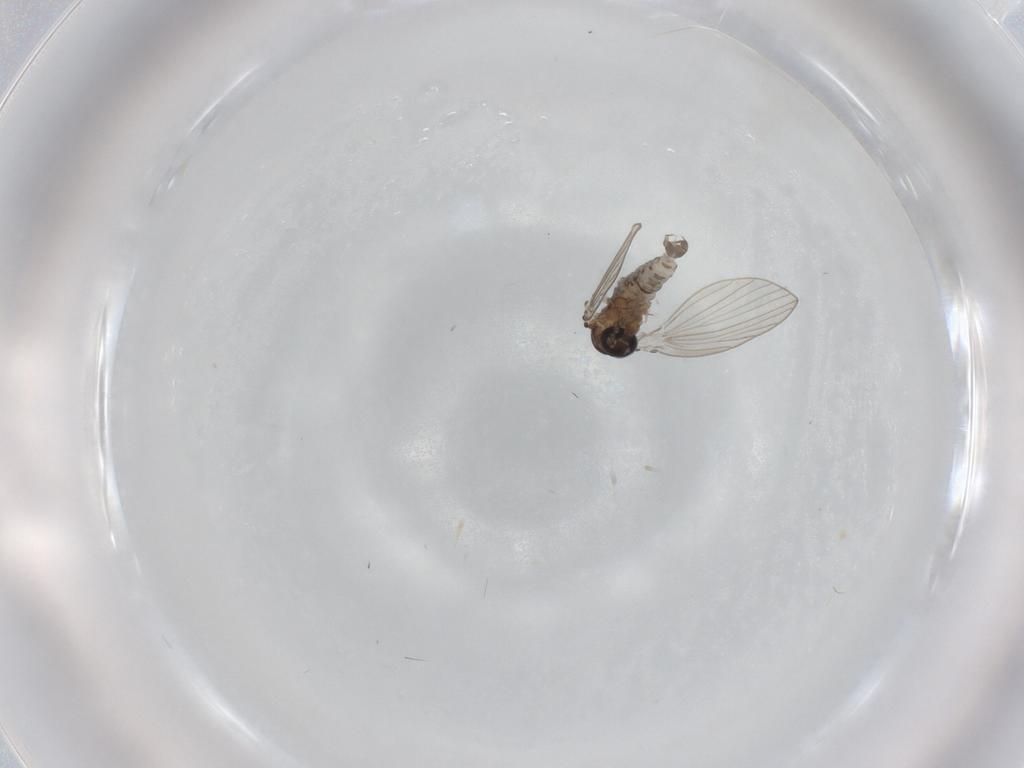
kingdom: Animalia
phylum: Arthropoda
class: Insecta
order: Diptera
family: Psychodidae
